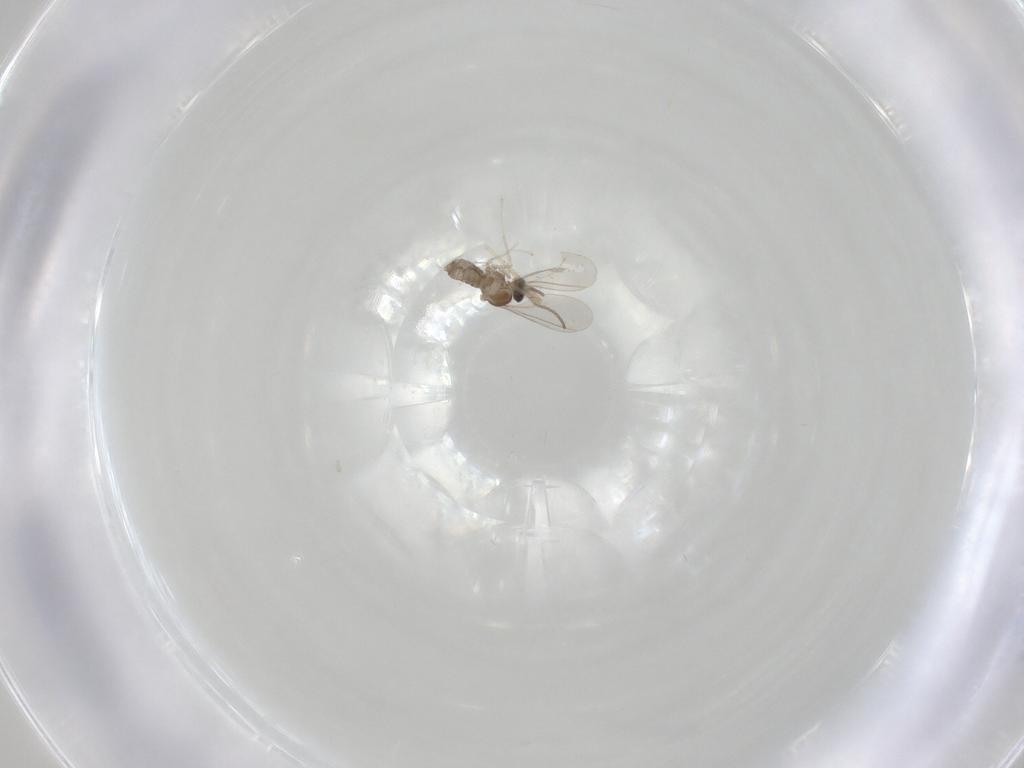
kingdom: Animalia
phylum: Arthropoda
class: Insecta
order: Diptera
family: Cecidomyiidae
